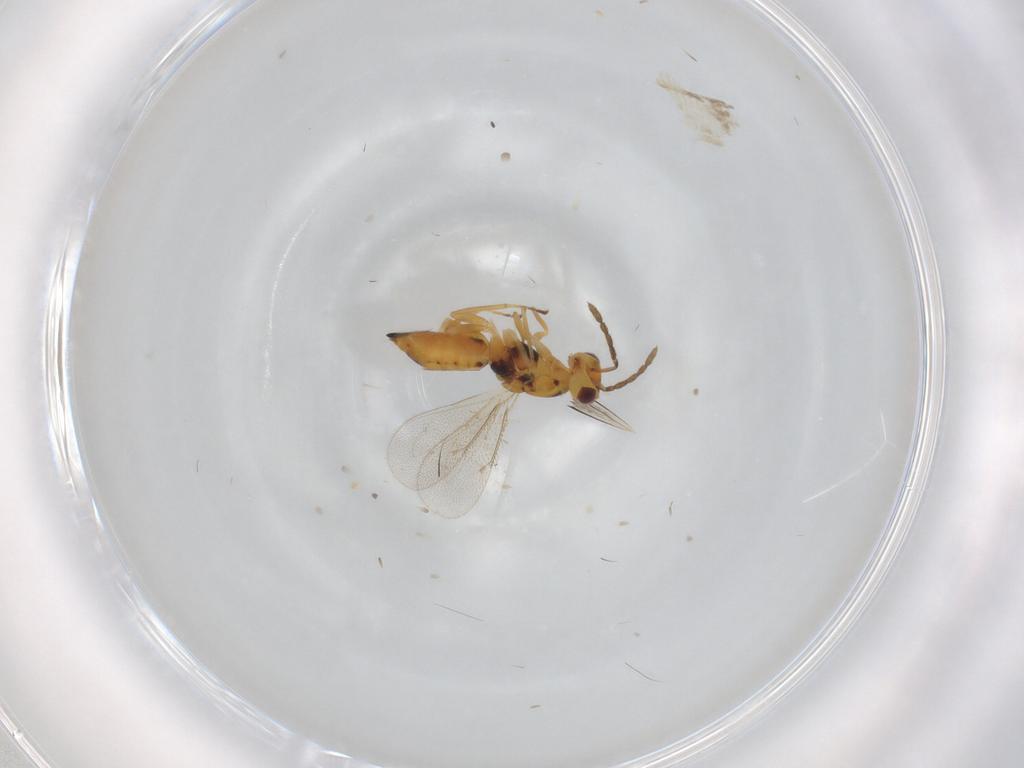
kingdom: Animalia
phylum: Arthropoda
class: Insecta
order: Hymenoptera
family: Eulophidae
